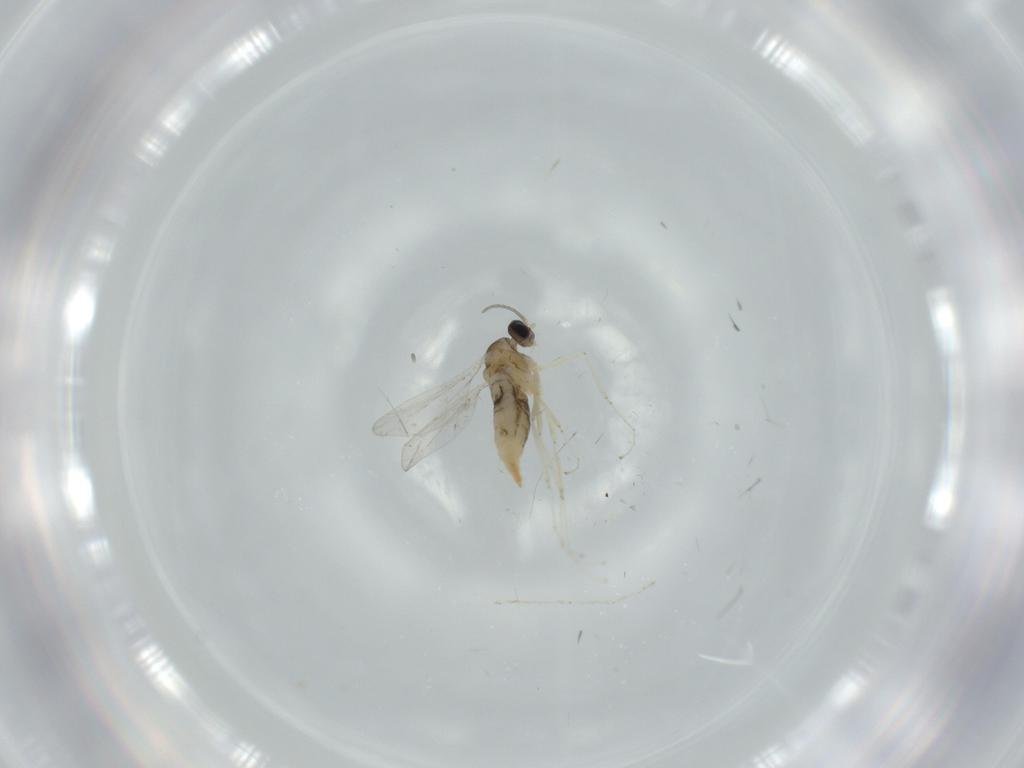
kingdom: Animalia
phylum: Arthropoda
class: Insecta
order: Diptera
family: Cecidomyiidae
